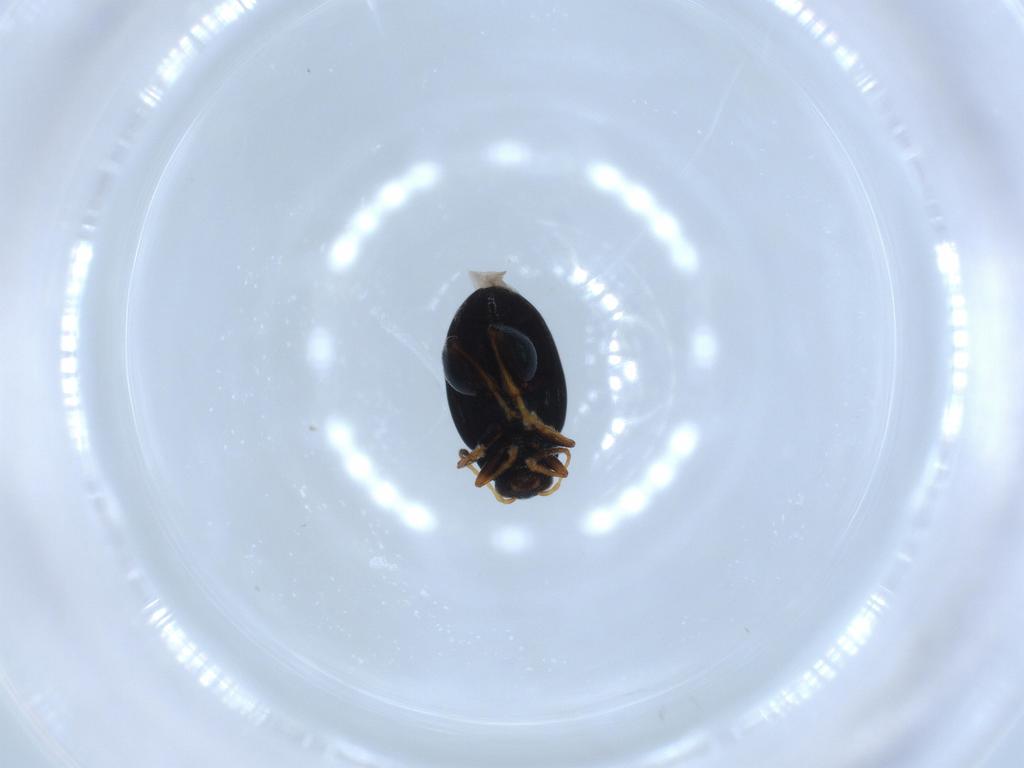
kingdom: Animalia
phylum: Arthropoda
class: Insecta
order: Coleoptera
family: Chrysomelidae
